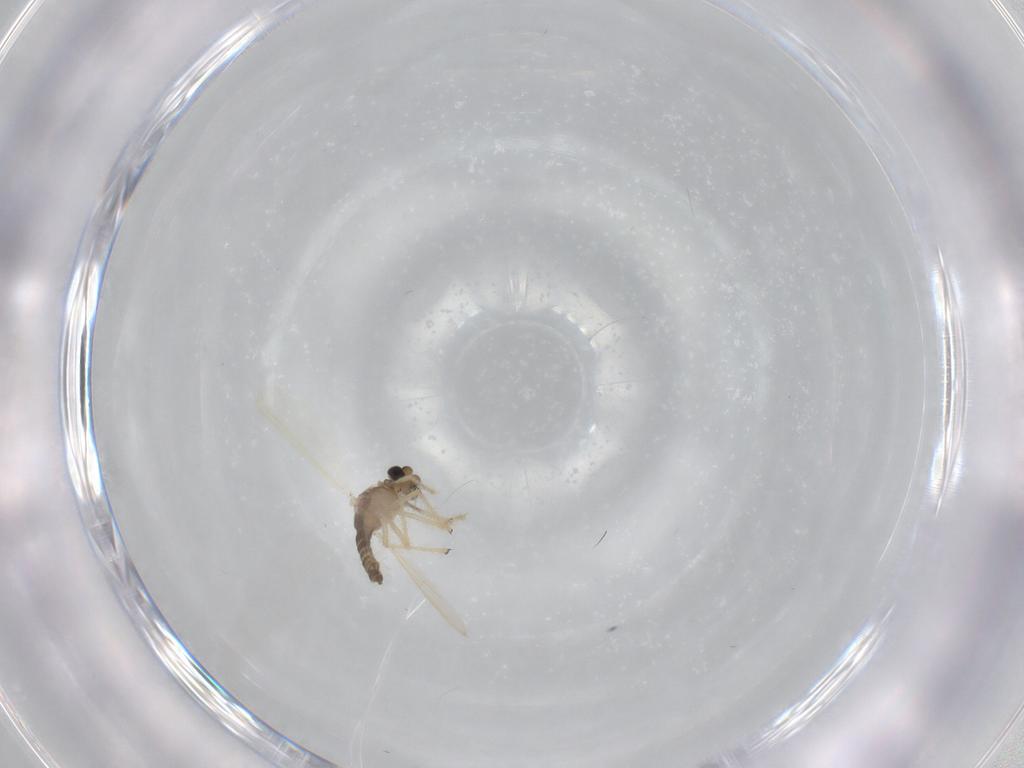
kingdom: Animalia
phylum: Arthropoda
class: Insecta
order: Diptera
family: Chironomidae
